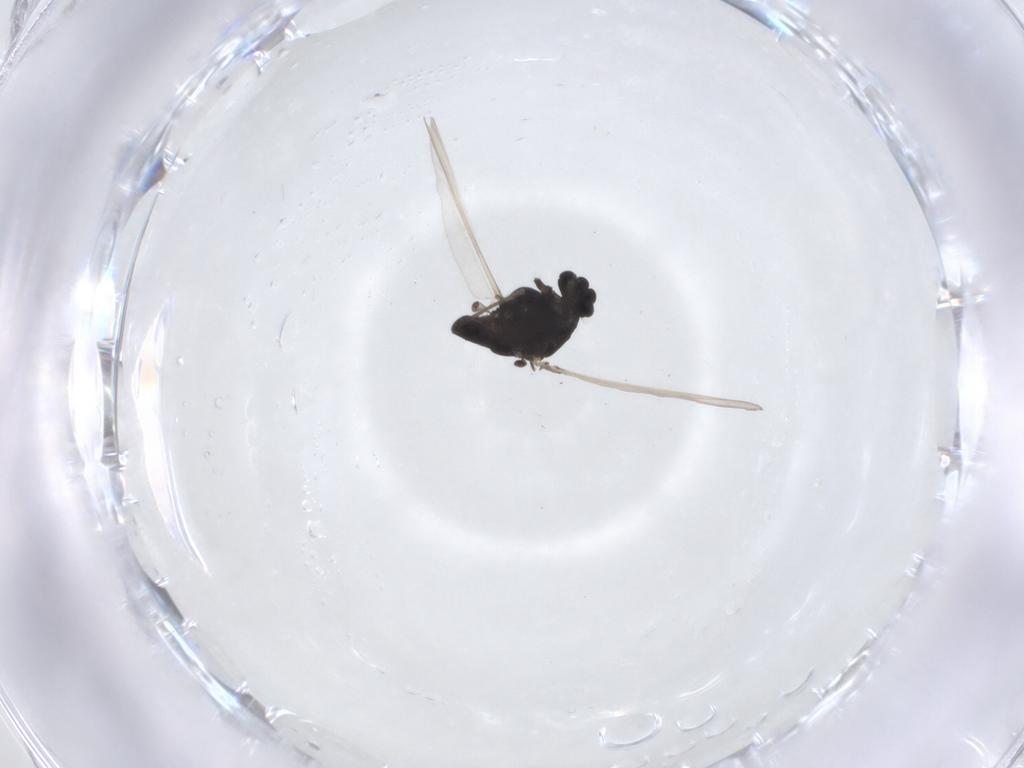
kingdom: Animalia
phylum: Arthropoda
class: Insecta
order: Diptera
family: Chironomidae
